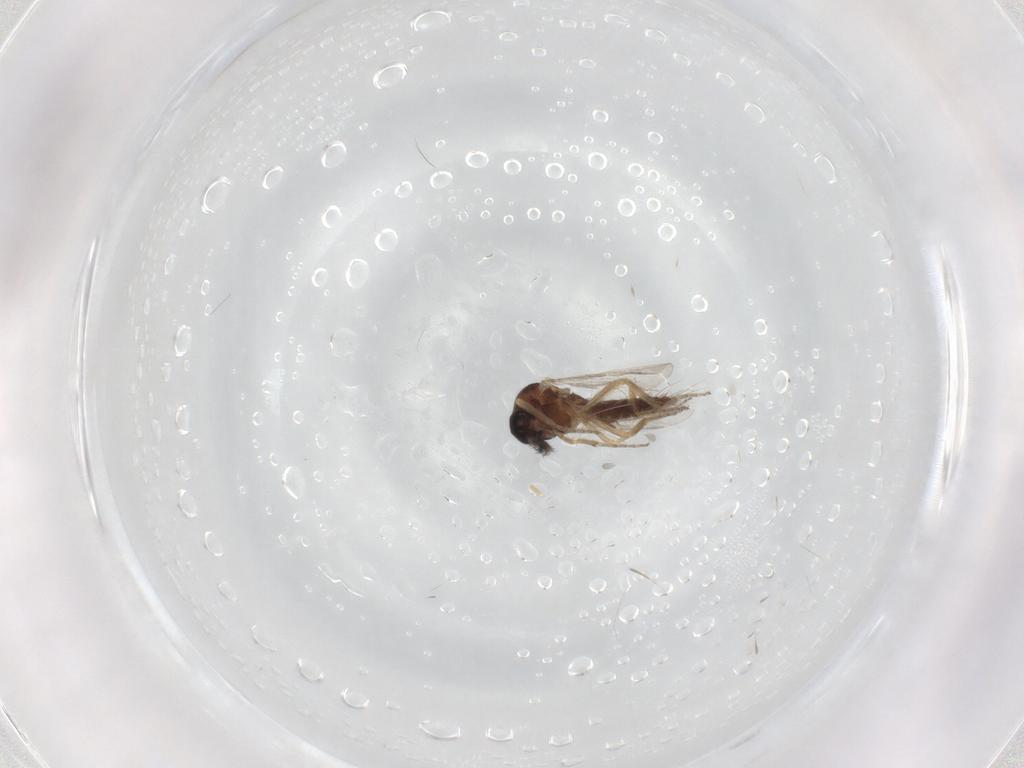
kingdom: Animalia
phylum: Arthropoda
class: Insecta
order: Diptera
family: Ceratopogonidae
